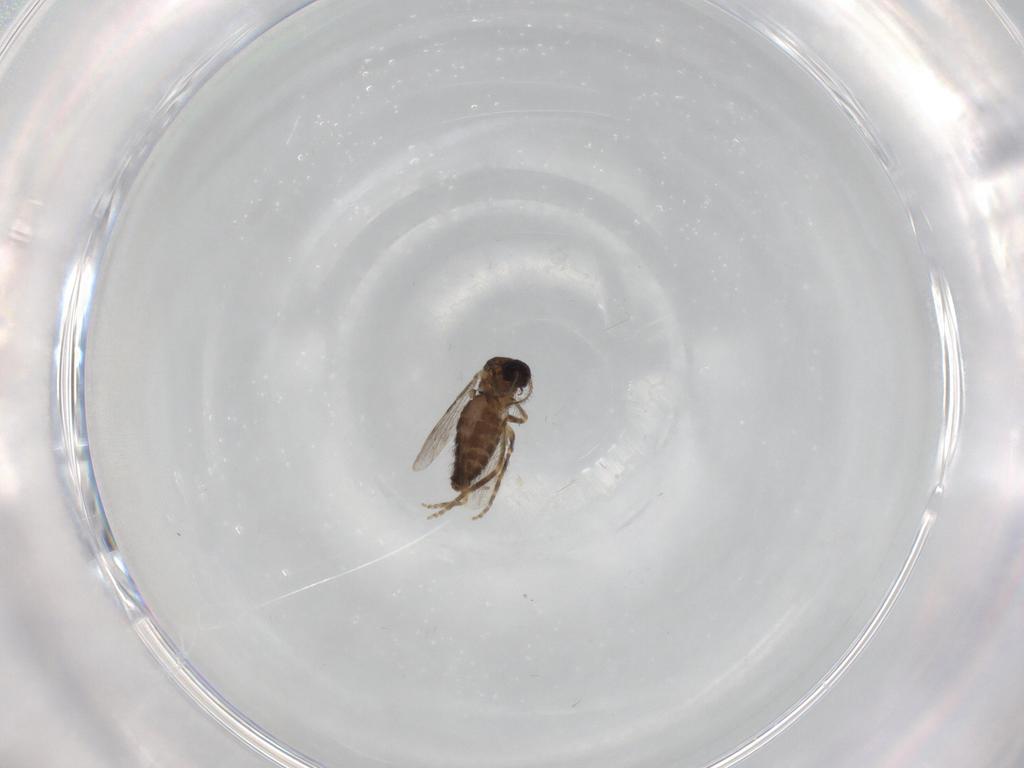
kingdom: Animalia
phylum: Arthropoda
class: Insecta
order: Diptera
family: Ceratopogonidae
